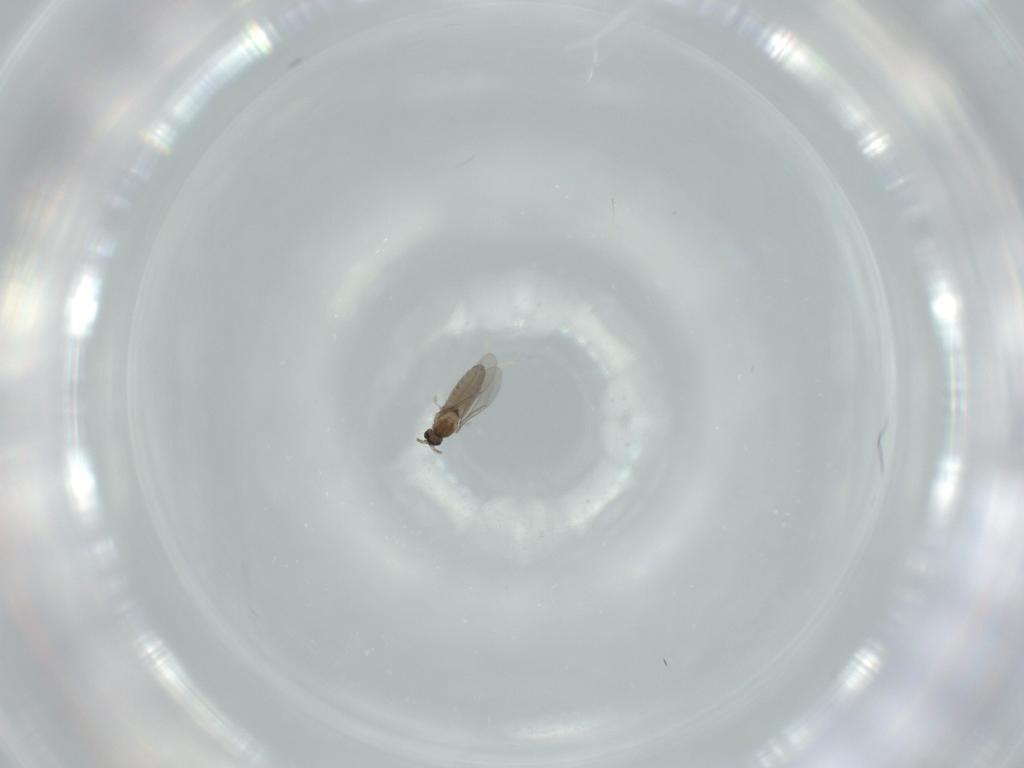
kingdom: Animalia
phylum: Arthropoda
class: Insecta
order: Diptera
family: Cecidomyiidae
